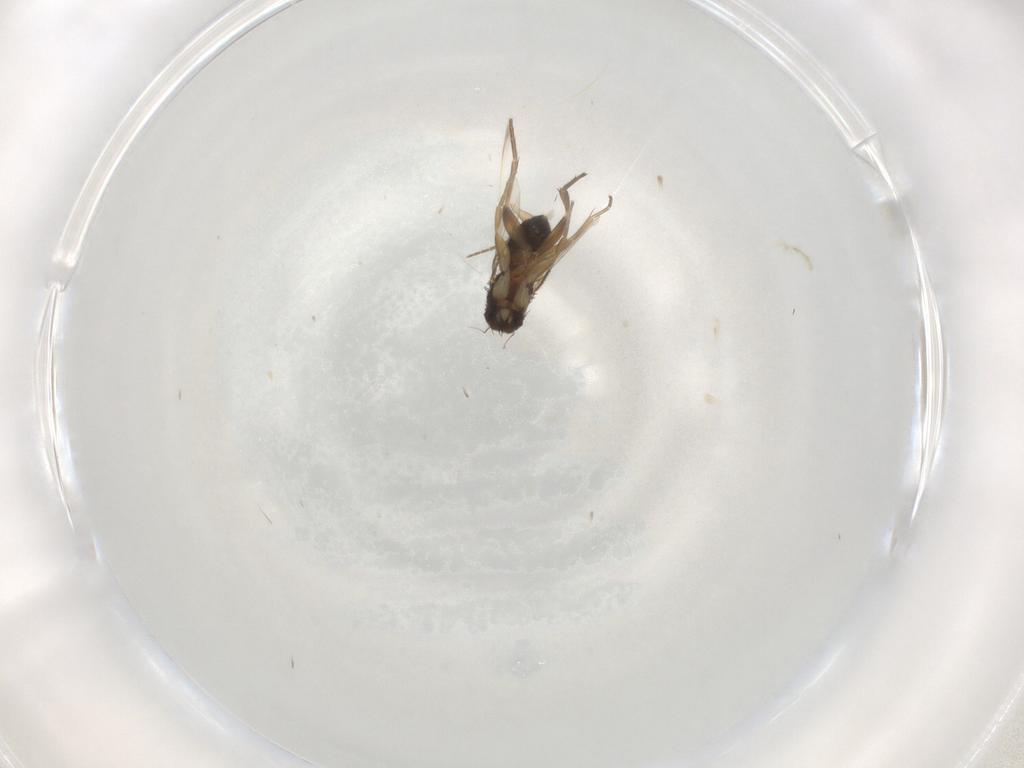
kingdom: Animalia
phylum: Arthropoda
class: Insecta
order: Diptera
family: Phoridae
